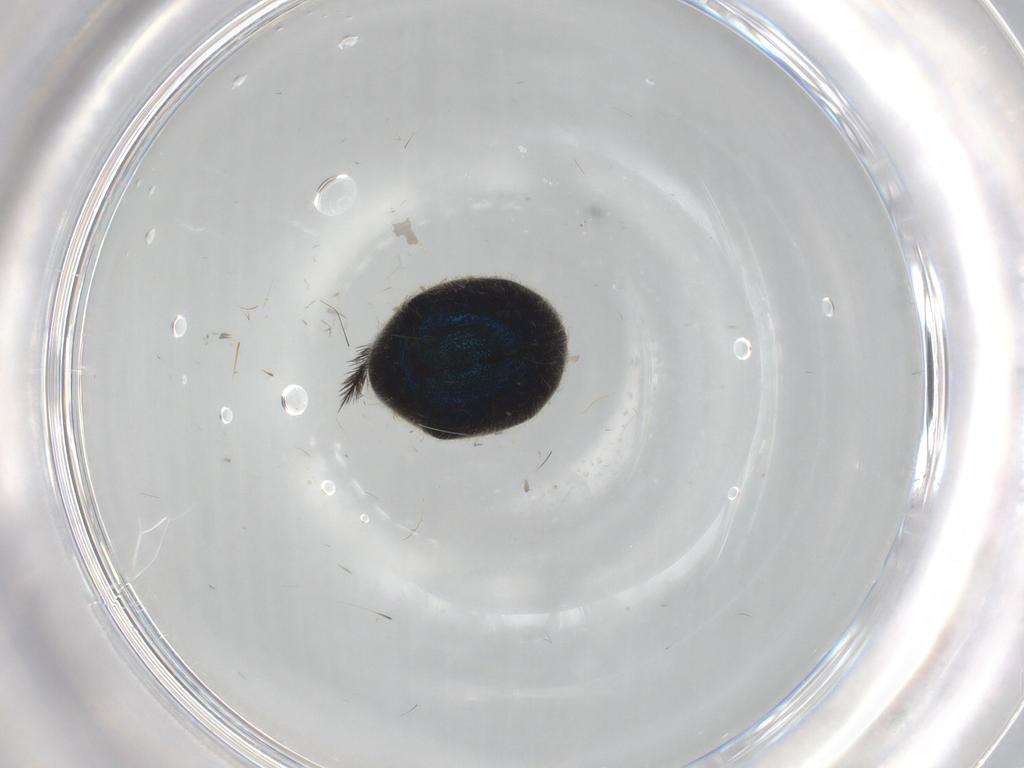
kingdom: Animalia
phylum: Arthropoda
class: Insecta
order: Coleoptera
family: Mordellidae
